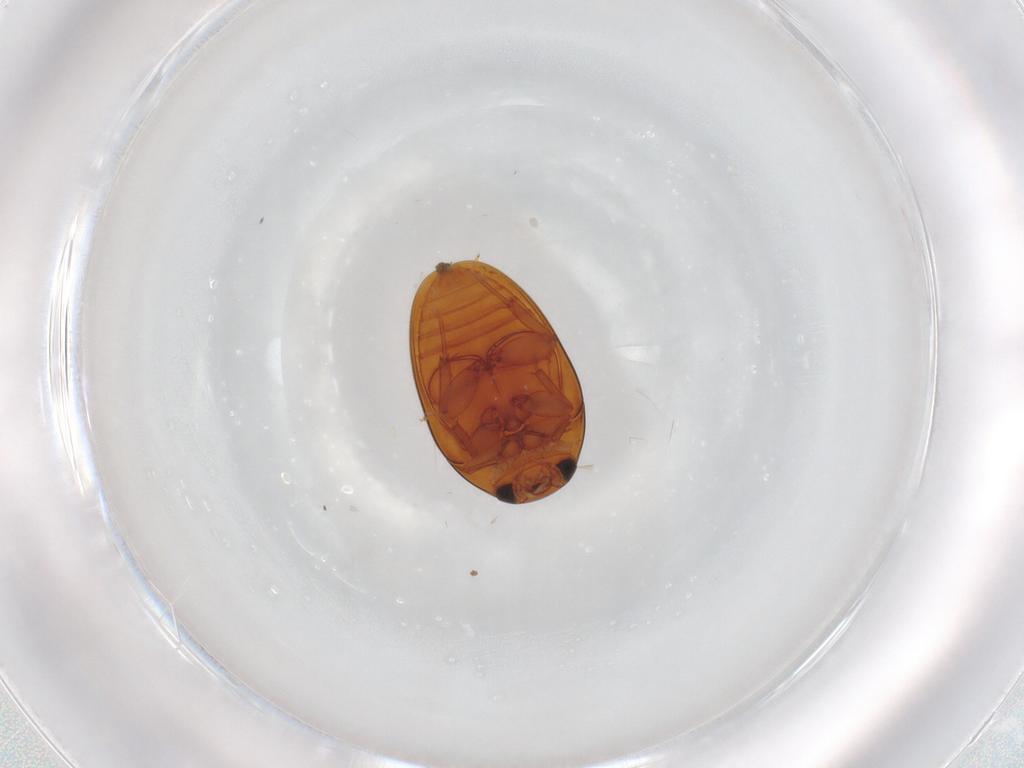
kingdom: Animalia
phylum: Arthropoda
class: Insecta
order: Coleoptera
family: Phalacridae
